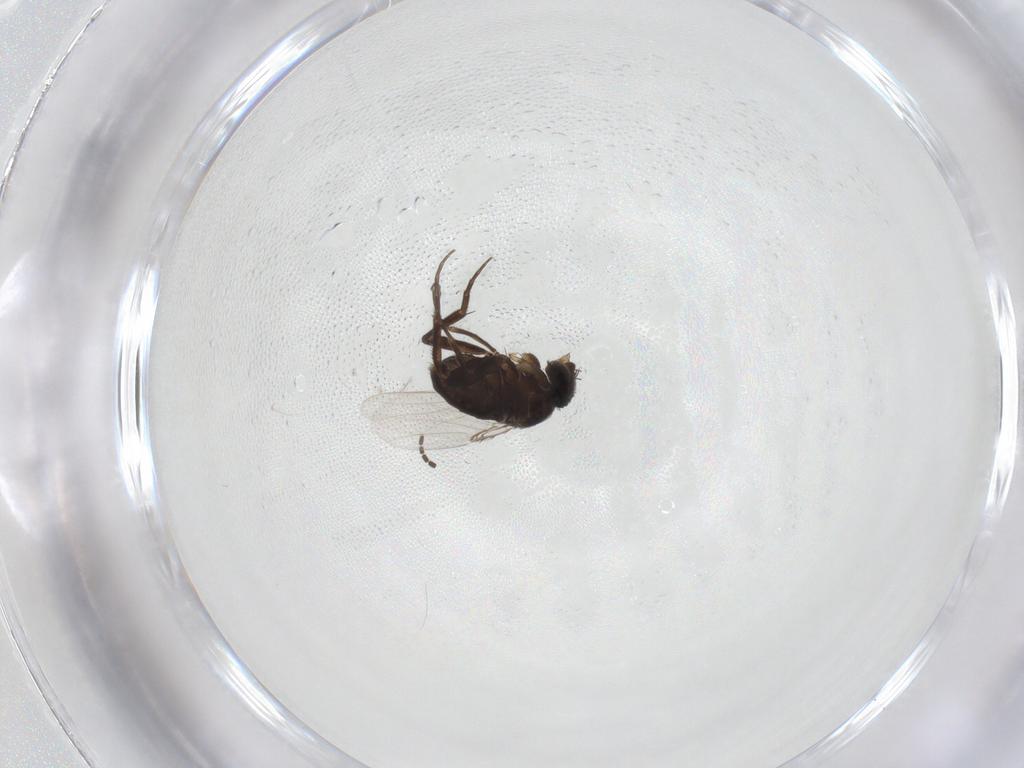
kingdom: Animalia
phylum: Arthropoda
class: Insecta
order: Diptera
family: Sciaridae
